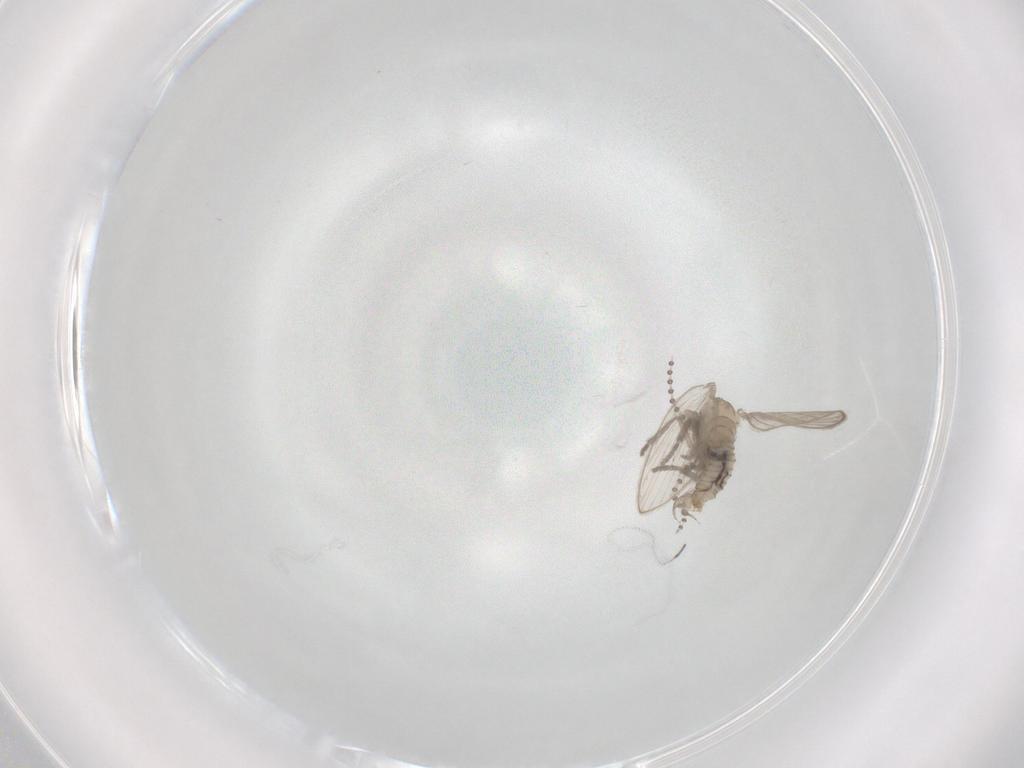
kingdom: Animalia
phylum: Arthropoda
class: Insecta
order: Diptera
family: Psychodidae
